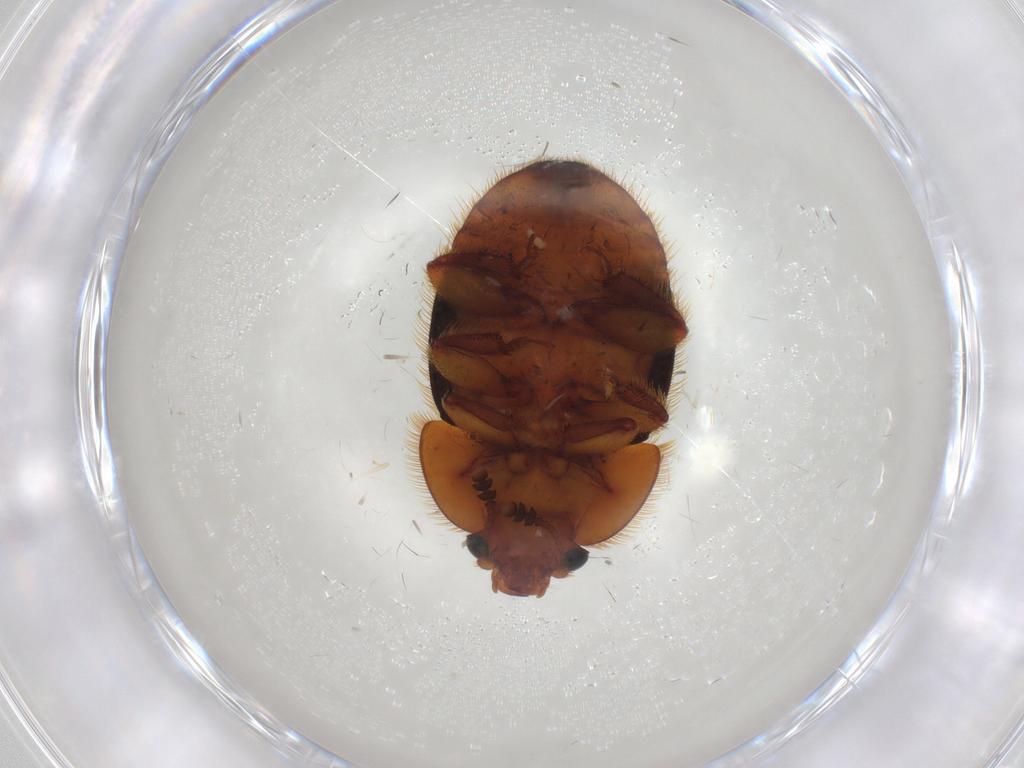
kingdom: Animalia
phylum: Arthropoda
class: Insecta
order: Coleoptera
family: Nitidulidae
